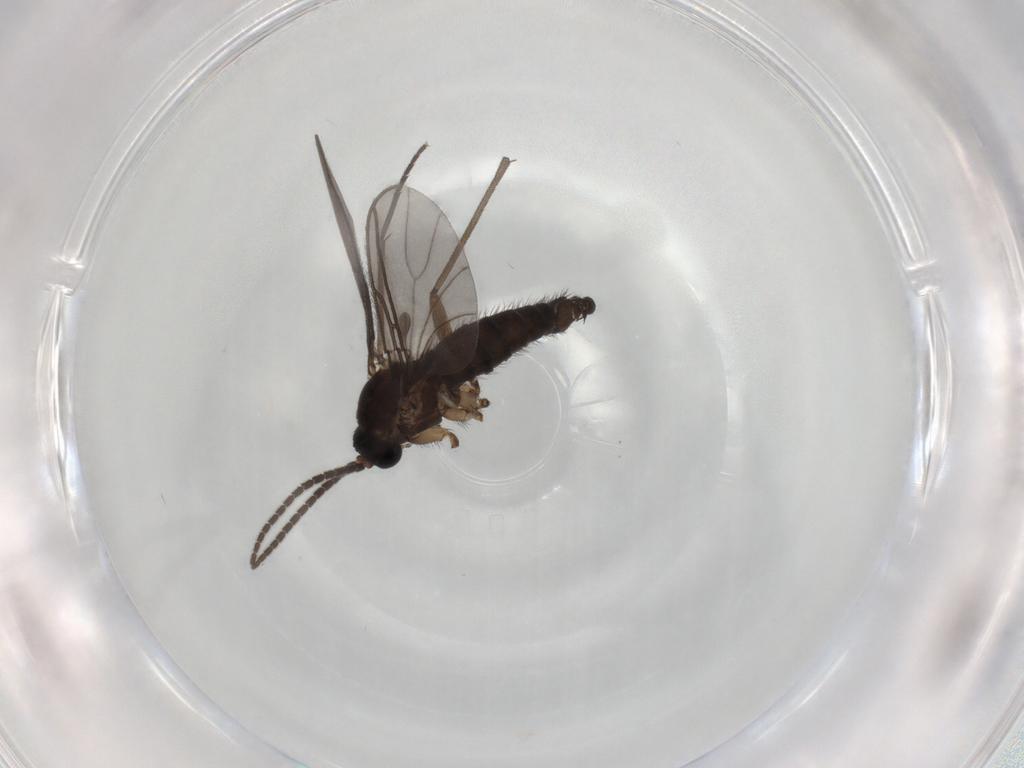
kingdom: Animalia
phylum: Arthropoda
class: Insecta
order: Diptera
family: Sciaridae
